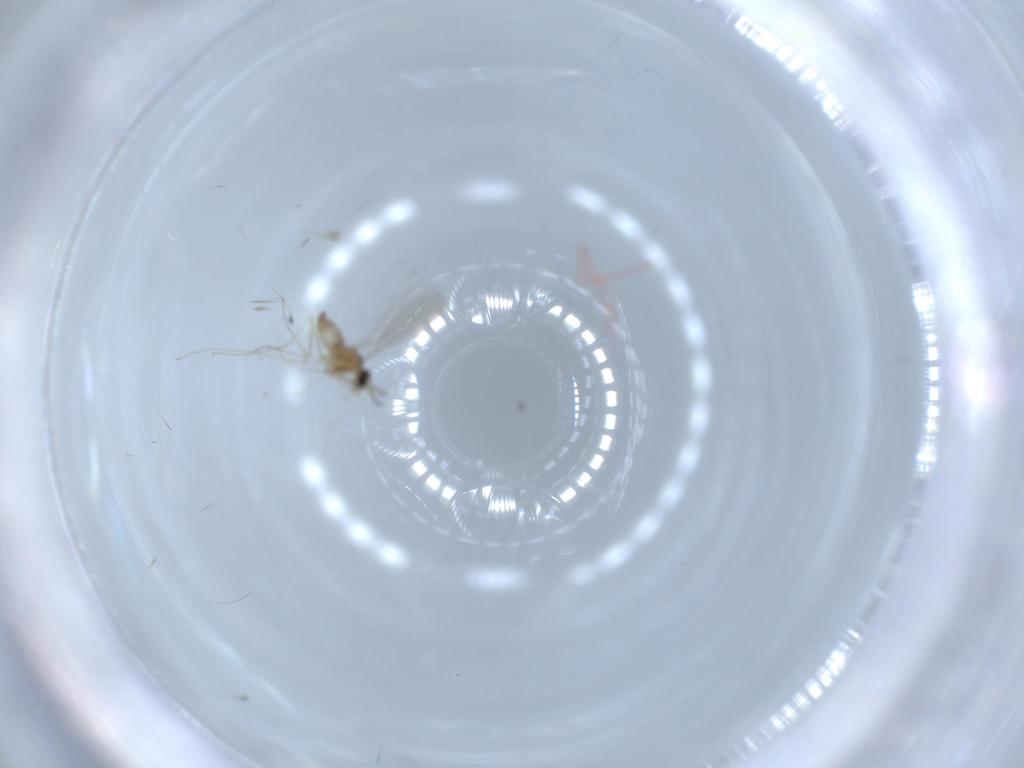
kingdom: Animalia
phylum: Arthropoda
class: Insecta
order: Diptera
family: Cecidomyiidae
